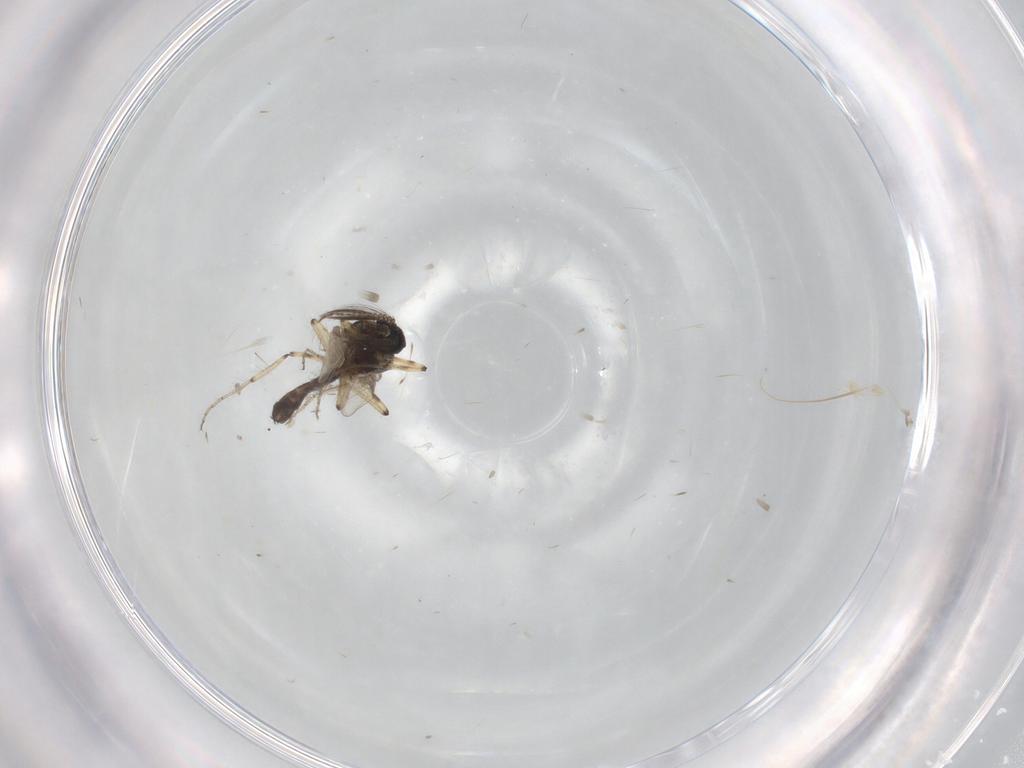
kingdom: Animalia
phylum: Arthropoda
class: Insecta
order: Diptera
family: Ceratopogonidae
